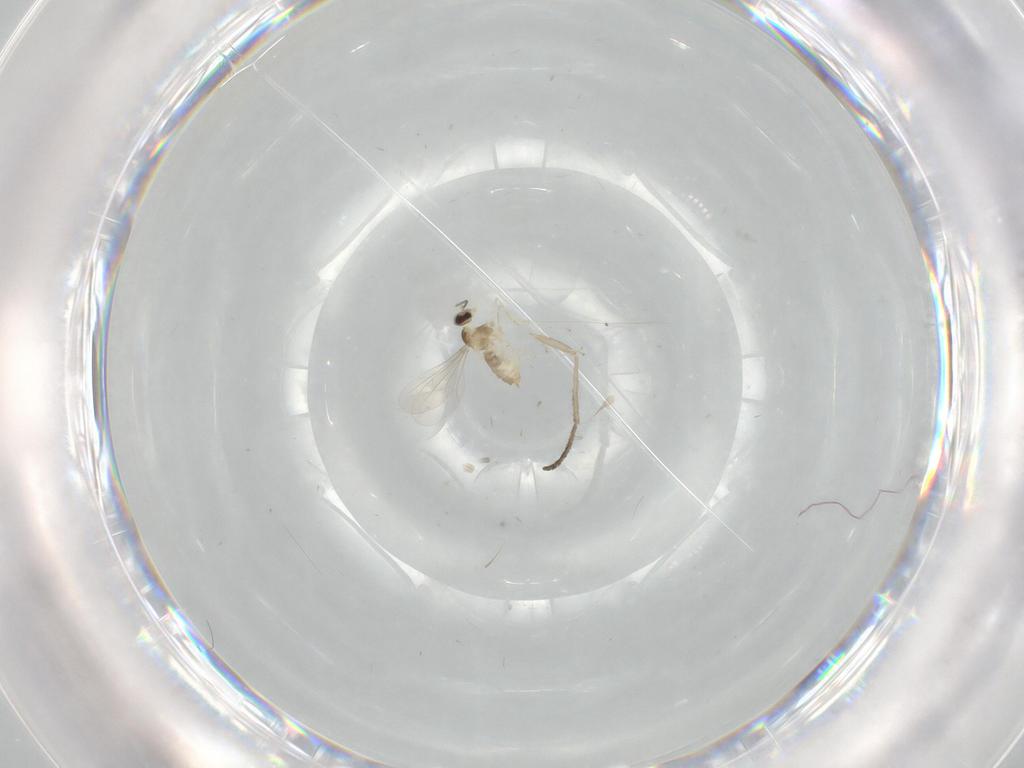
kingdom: Animalia
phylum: Arthropoda
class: Insecta
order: Diptera
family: Cecidomyiidae
